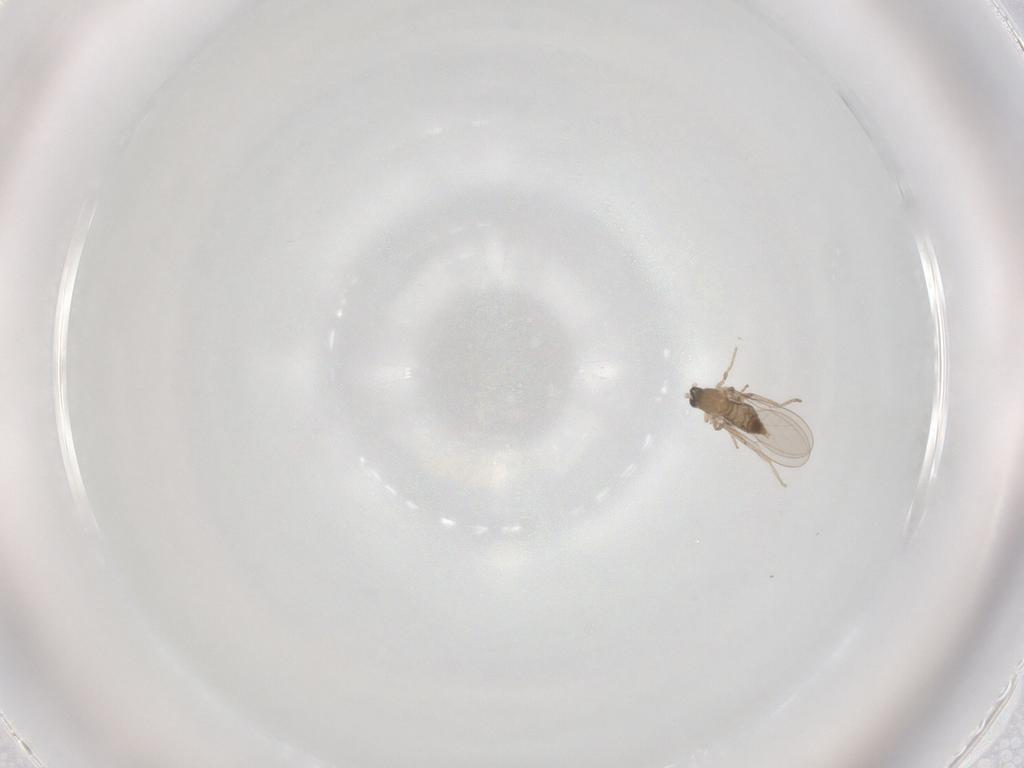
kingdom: Animalia
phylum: Arthropoda
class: Insecta
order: Diptera
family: Cecidomyiidae
